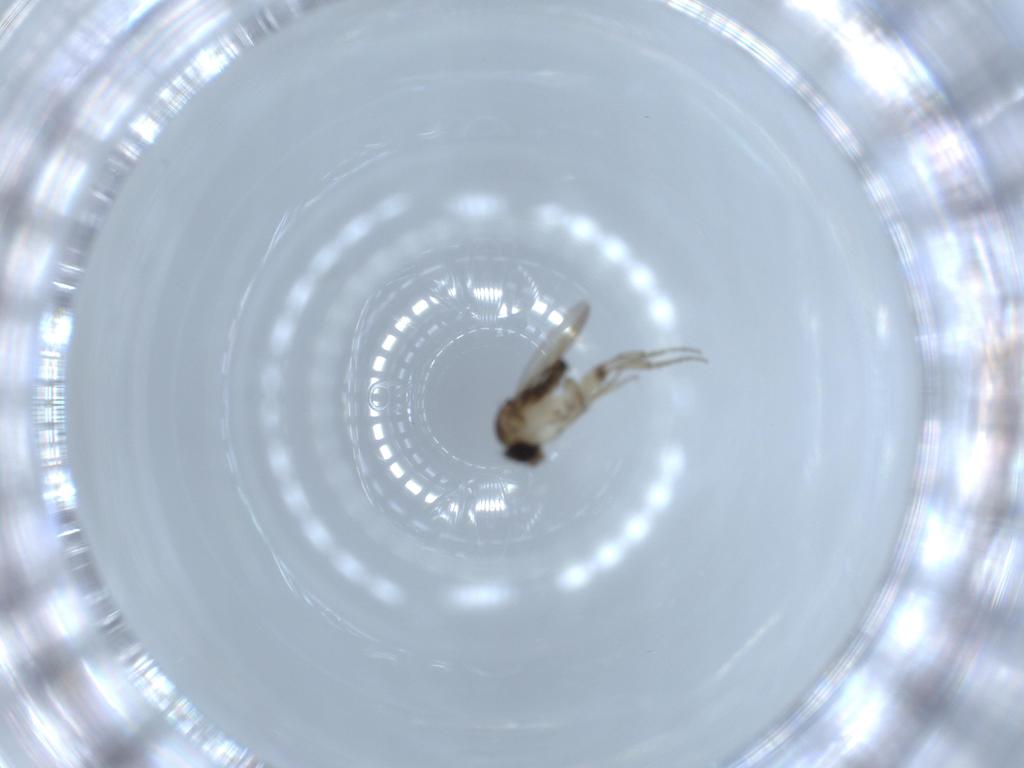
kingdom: Animalia
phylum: Arthropoda
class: Insecta
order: Diptera
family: Phoridae
